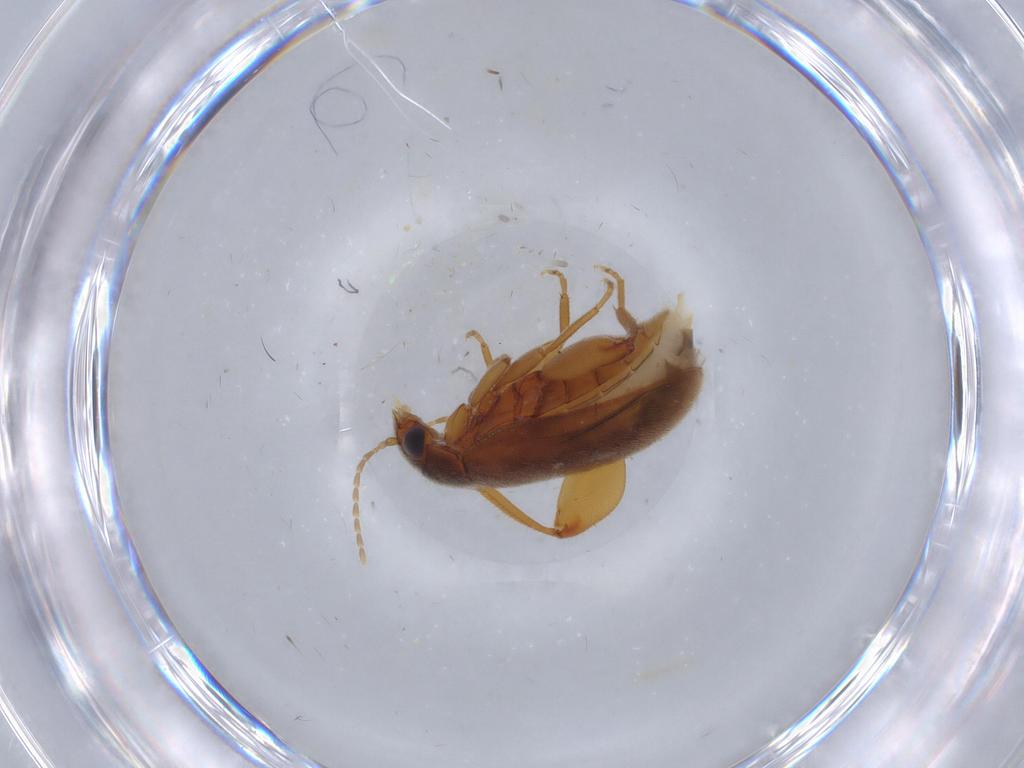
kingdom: Animalia
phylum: Arthropoda
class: Insecta
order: Coleoptera
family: Scirtidae
